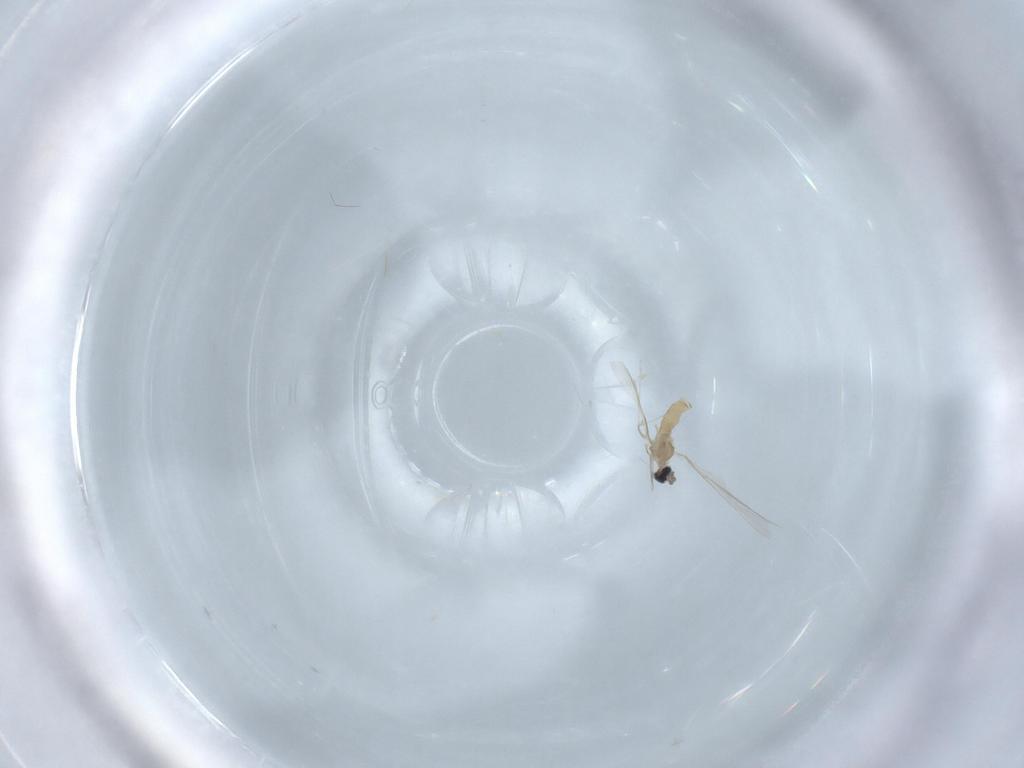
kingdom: Animalia
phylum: Arthropoda
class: Insecta
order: Diptera
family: Cecidomyiidae
